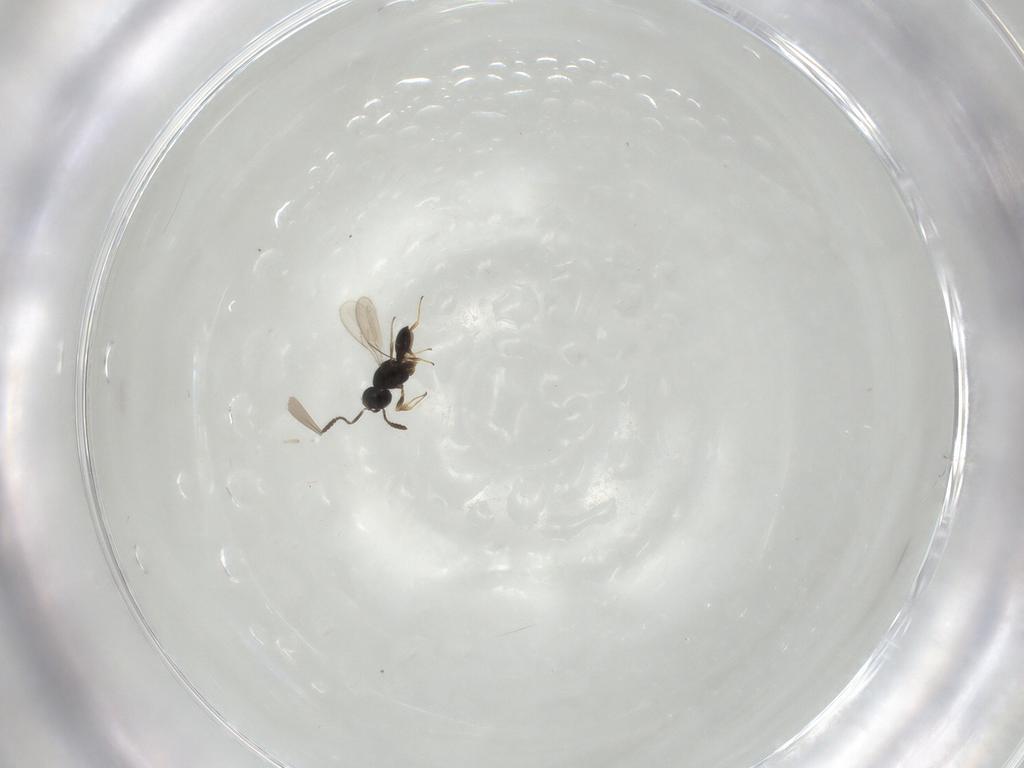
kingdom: Animalia
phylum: Arthropoda
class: Insecta
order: Hymenoptera
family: Scelionidae
